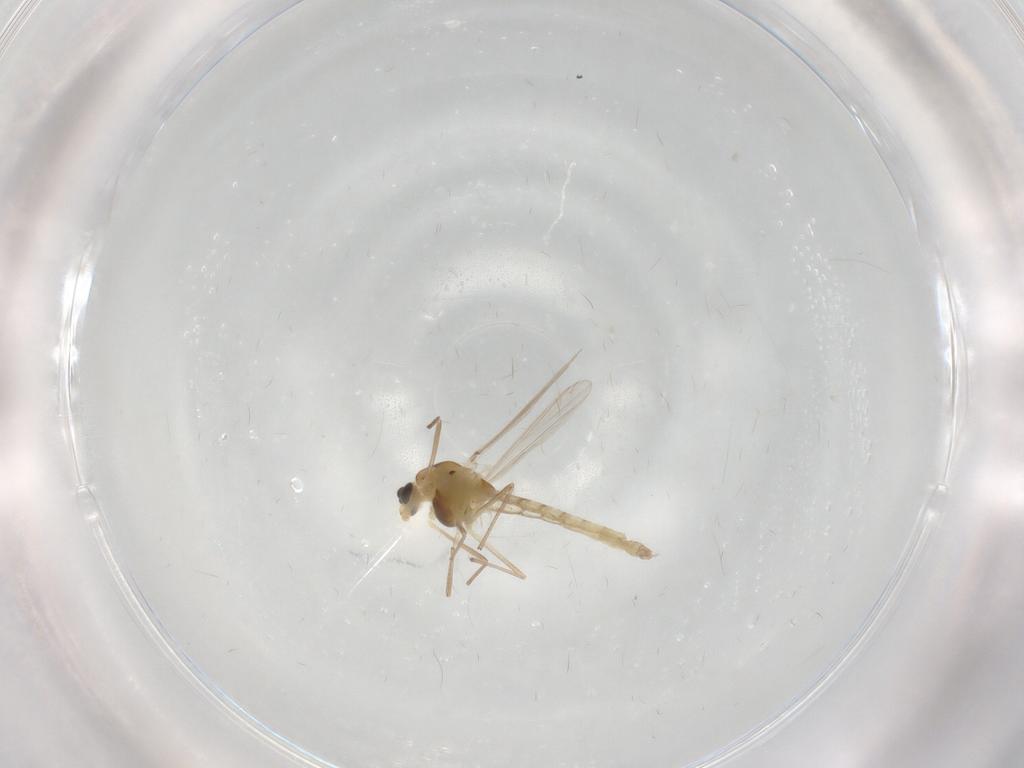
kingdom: Animalia
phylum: Arthropoda
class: Insecta
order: Diptera
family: Chironomidae
